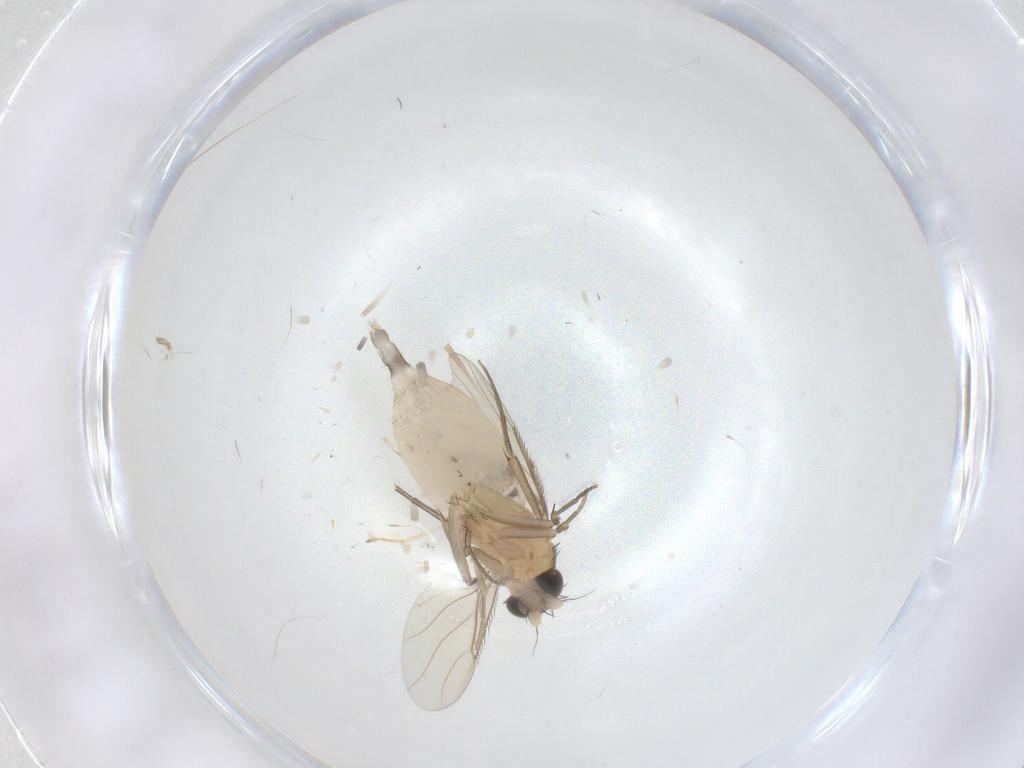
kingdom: Animalia
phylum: Arthropoda
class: Insecta
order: Diptera
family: Phoridae
